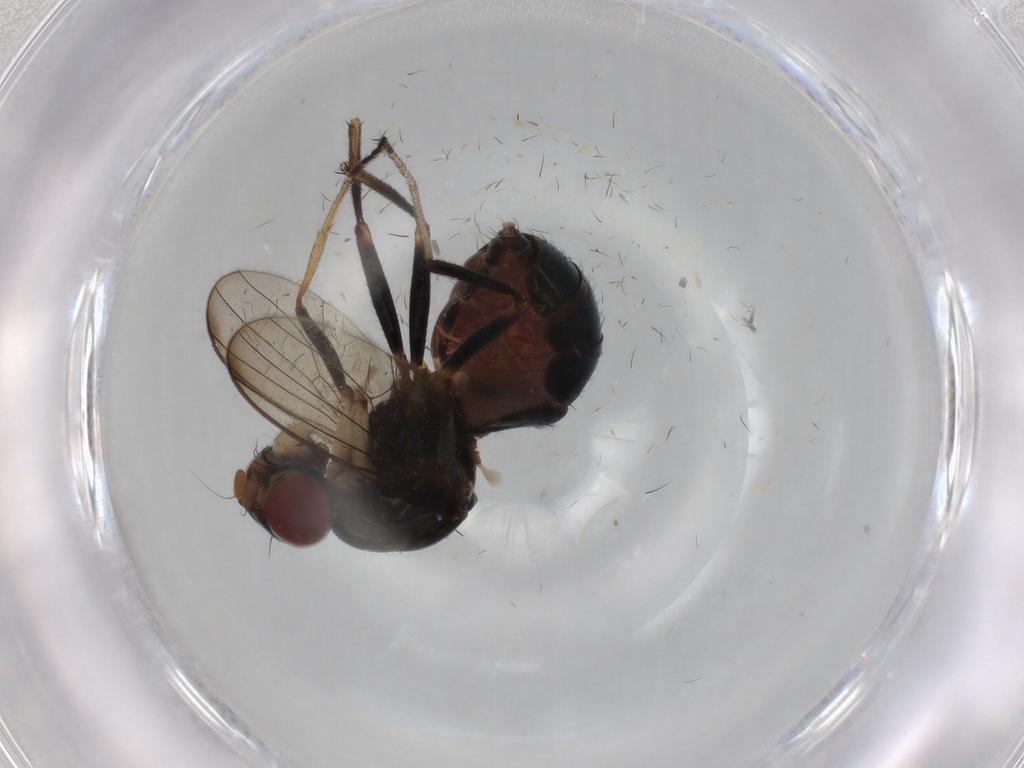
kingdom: Animalia
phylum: Arthropoda
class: Insecta
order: Diptera
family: Sepsidae
